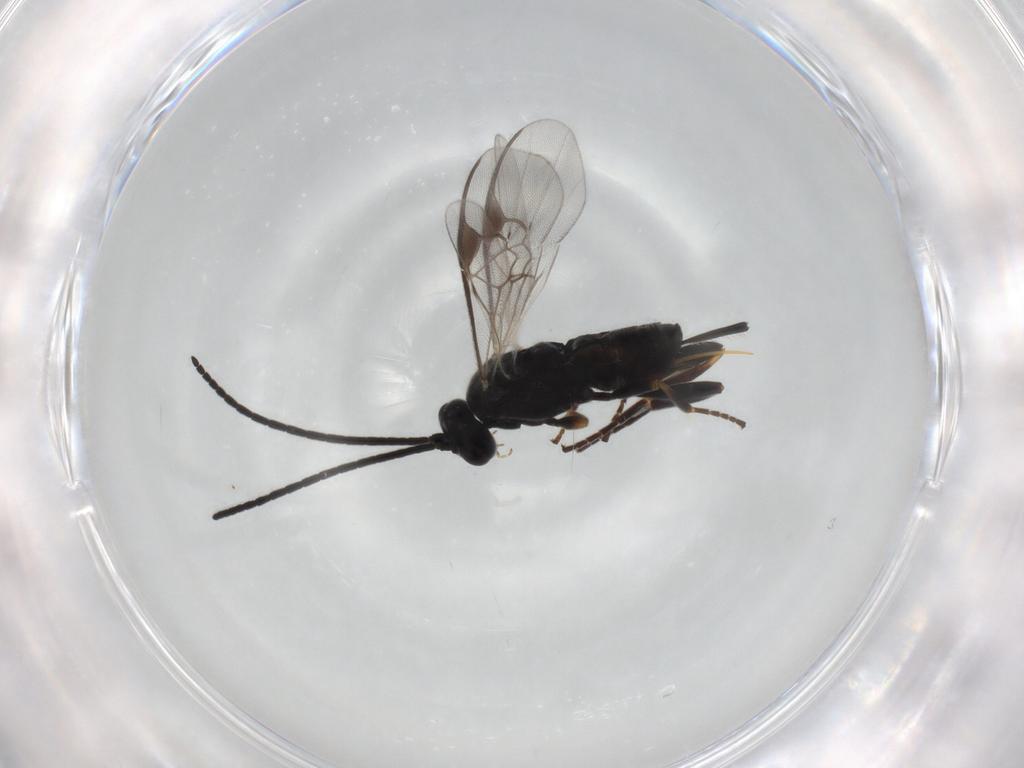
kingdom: Animalia
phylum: Arthropoda
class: Insecta
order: Hymenoptera
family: Braconidae
